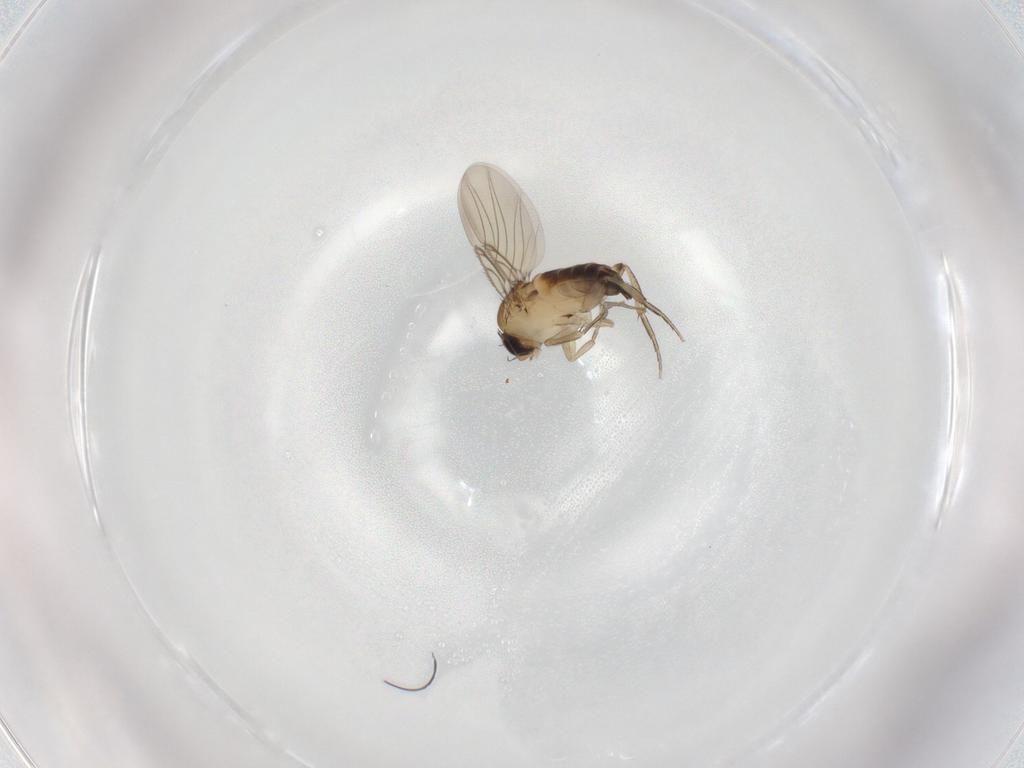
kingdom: Animalia
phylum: Arthropoda
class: Insecta
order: Diptera
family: Phoridae
